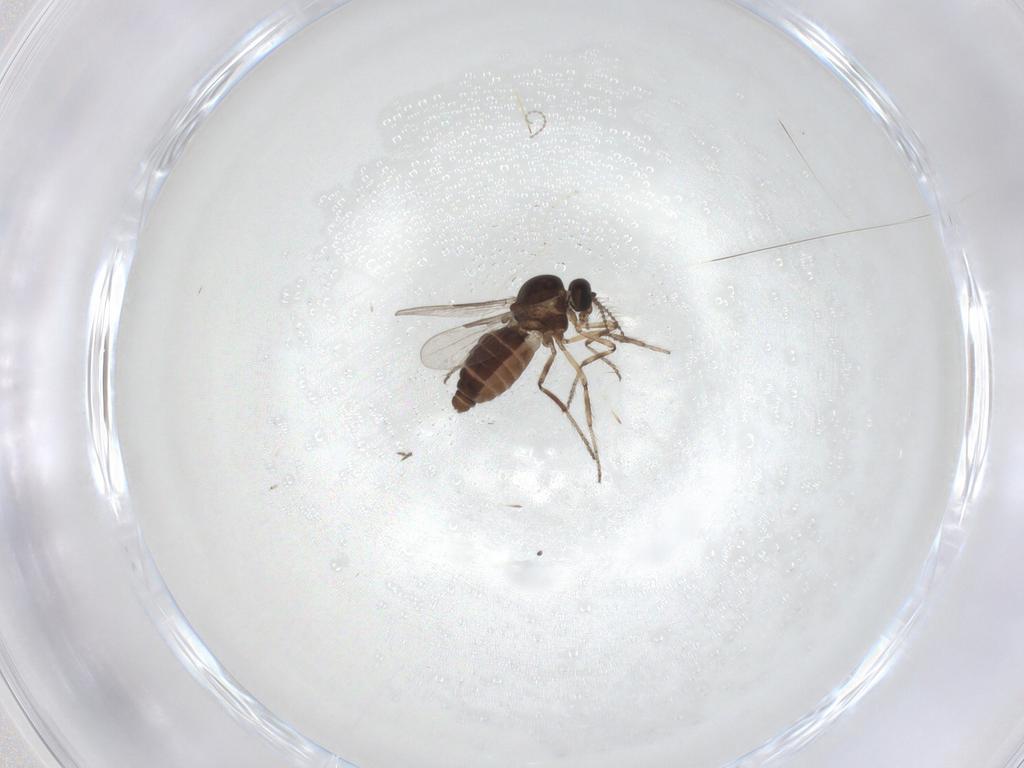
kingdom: Animalia
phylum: Arthropoda
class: Insecta
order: Diptera
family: Ceratopogonidae
